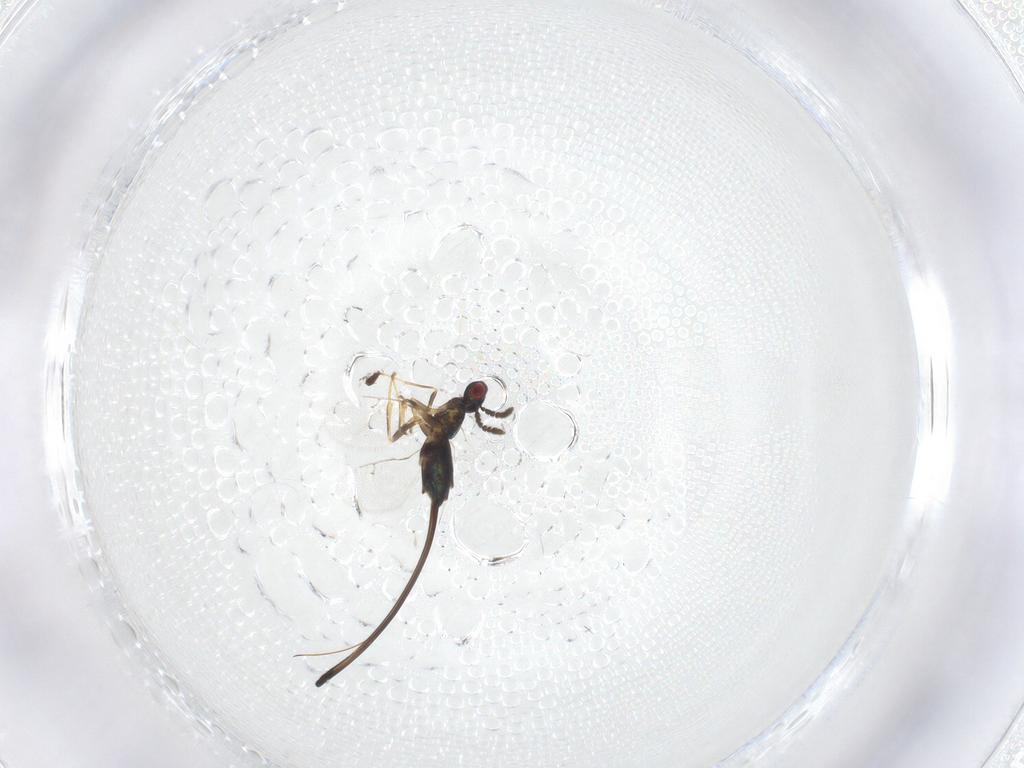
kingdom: Animalia
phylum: Arthropoda
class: Insecta
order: Hymenoptera
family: Pteromalidae
